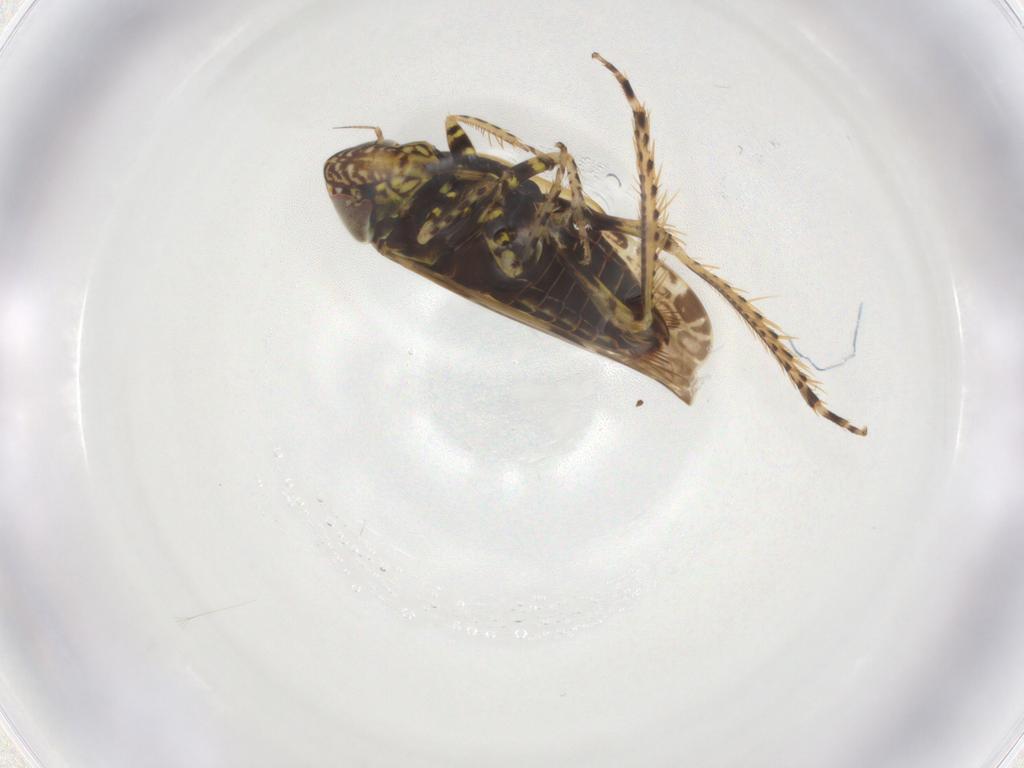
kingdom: Animalia
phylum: Arthropoda
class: Insecta
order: Hemiptera
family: Cicadellidae
